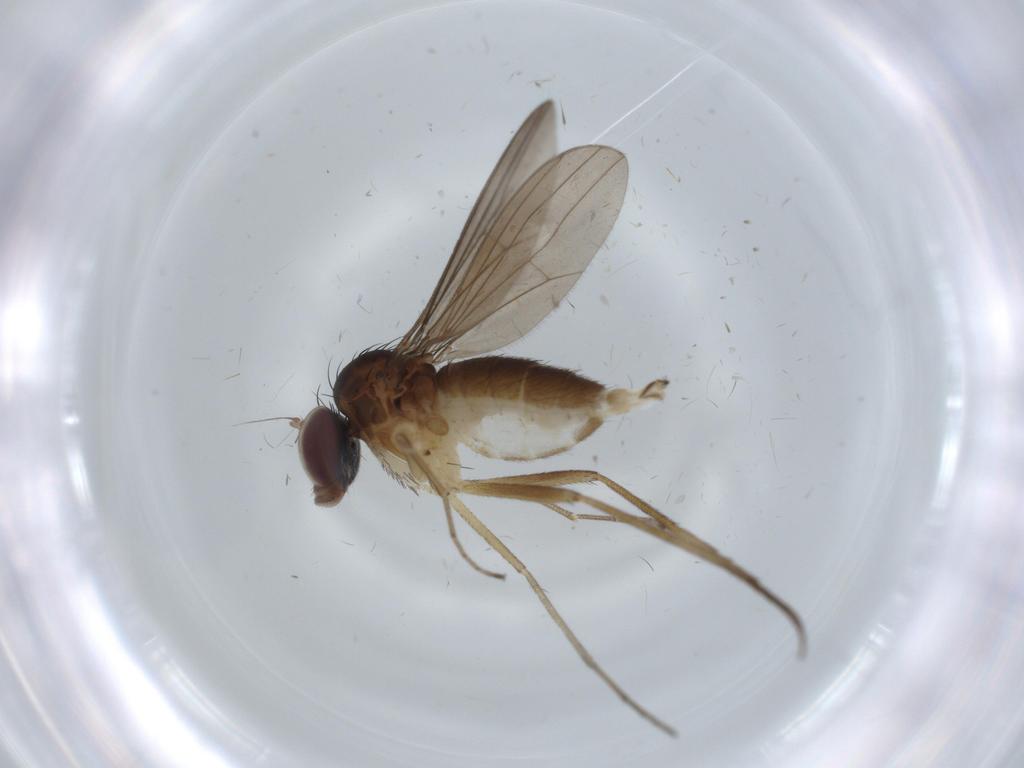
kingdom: Animalia
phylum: Arthropoda
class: Insecta
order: Diptera
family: Dolichopodidae
